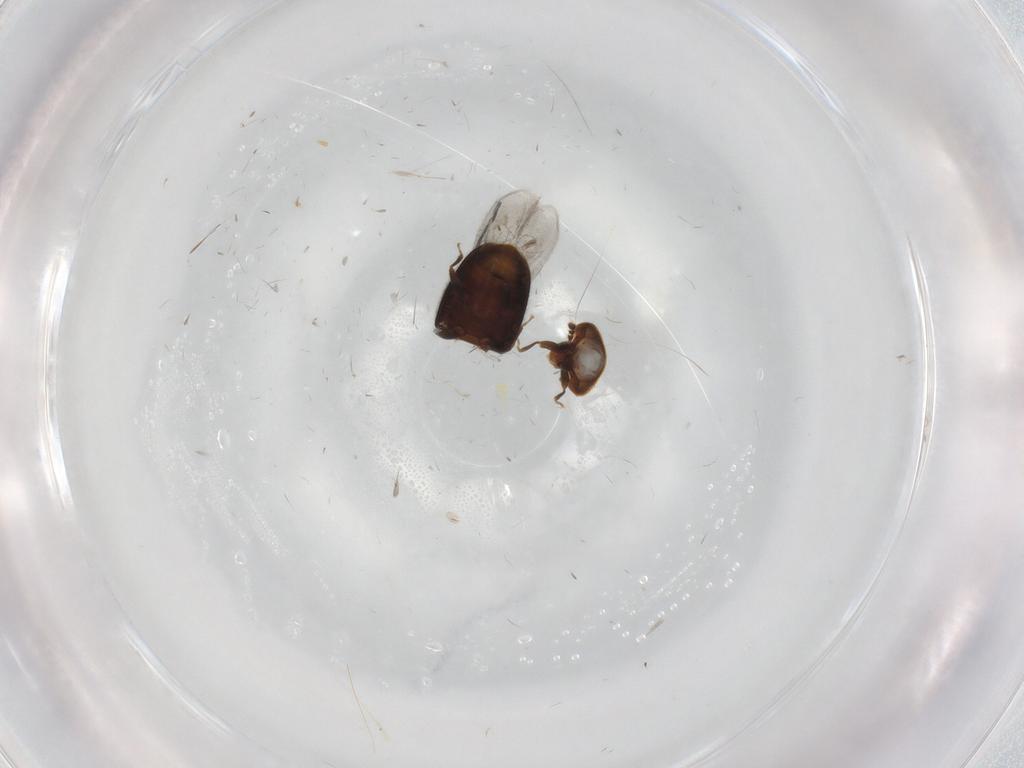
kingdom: Animalia
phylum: Arthropoda
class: Insecta
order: Coleoptera
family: Corylophidae
